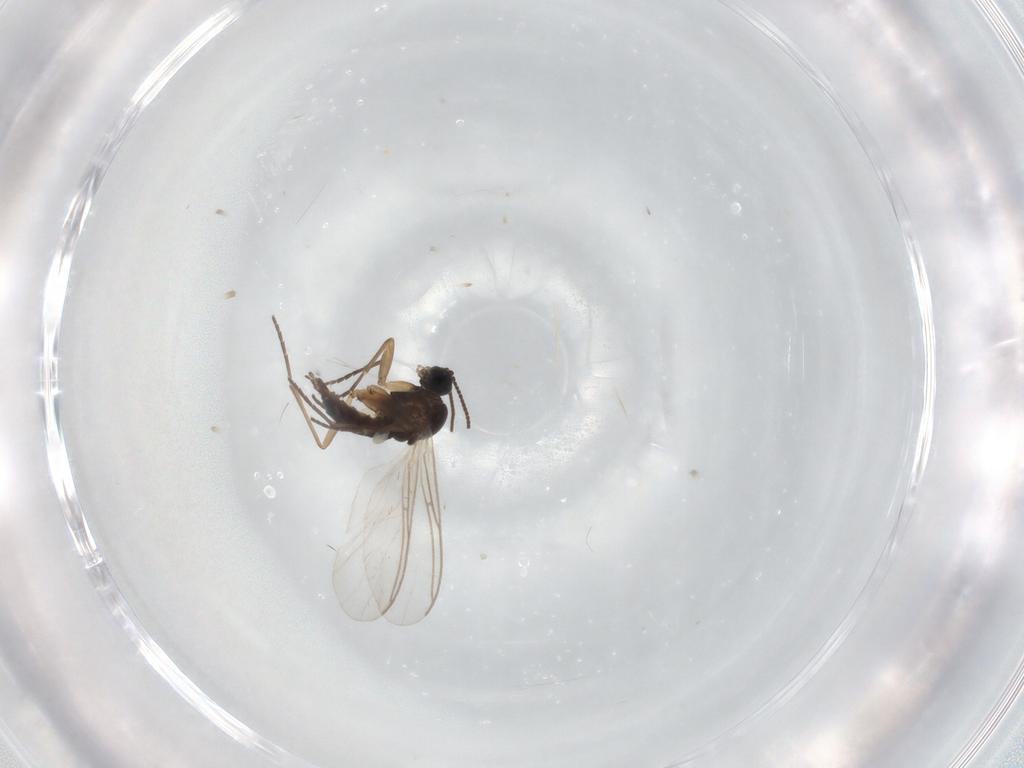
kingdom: Animalia
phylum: Arthropoda
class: Insecta
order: Diptera
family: Sciaridae
